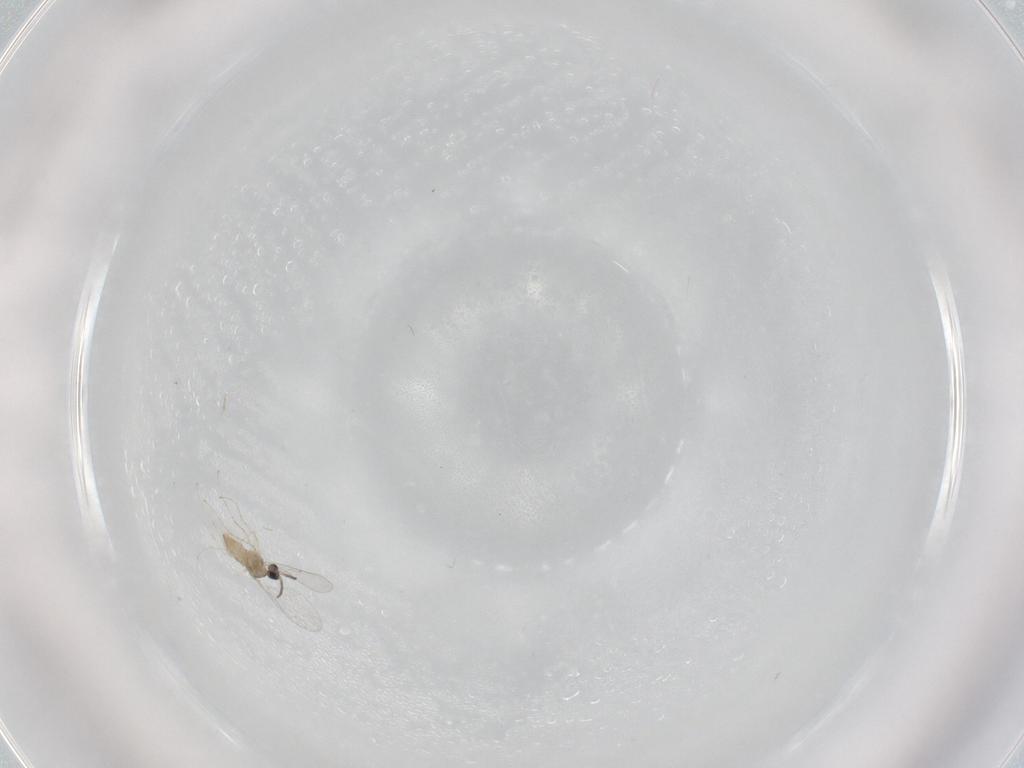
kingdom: Animalia
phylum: Arthropoda
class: Insecta
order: Diptera
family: Cecidomyiidae
